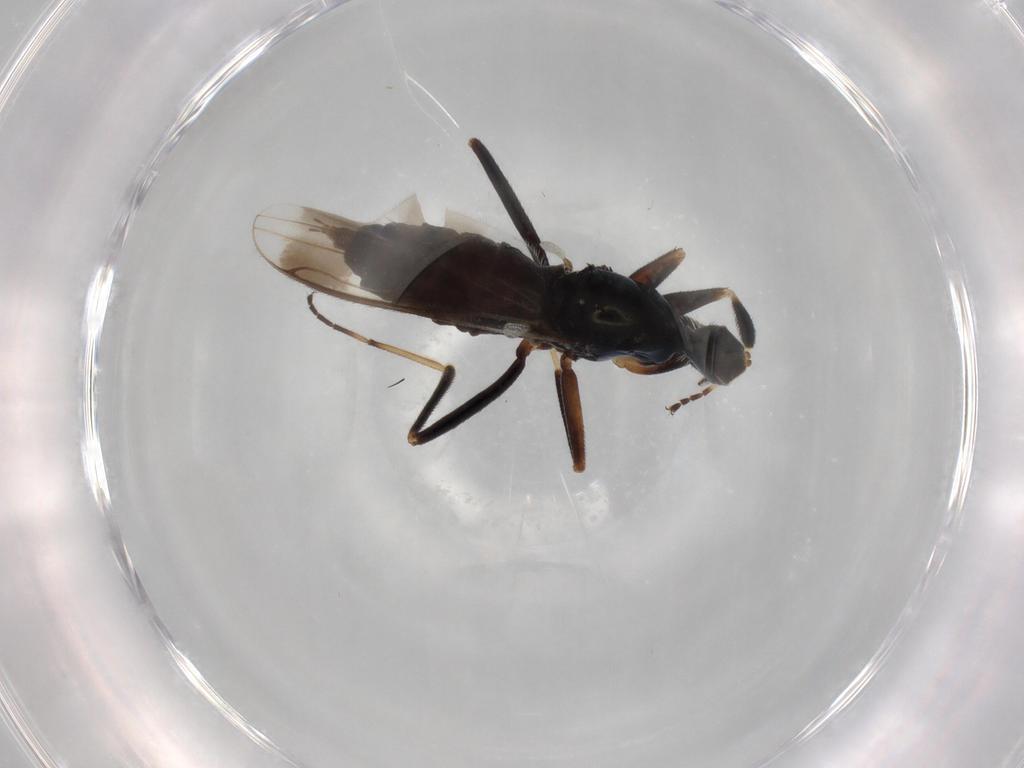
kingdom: Animalia
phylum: Arthropoda
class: Insecta
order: Diptera
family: Hybotidae
